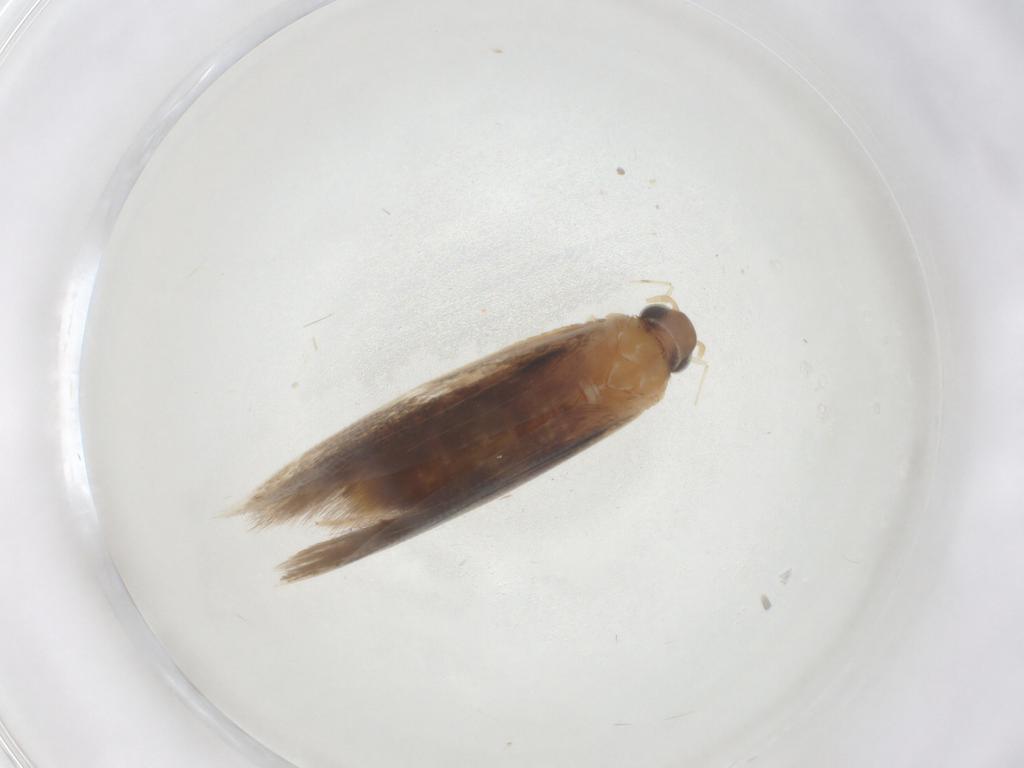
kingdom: Animalia
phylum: Arthropoda
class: Insecta
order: Lepidoptera
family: Gelechiidae
